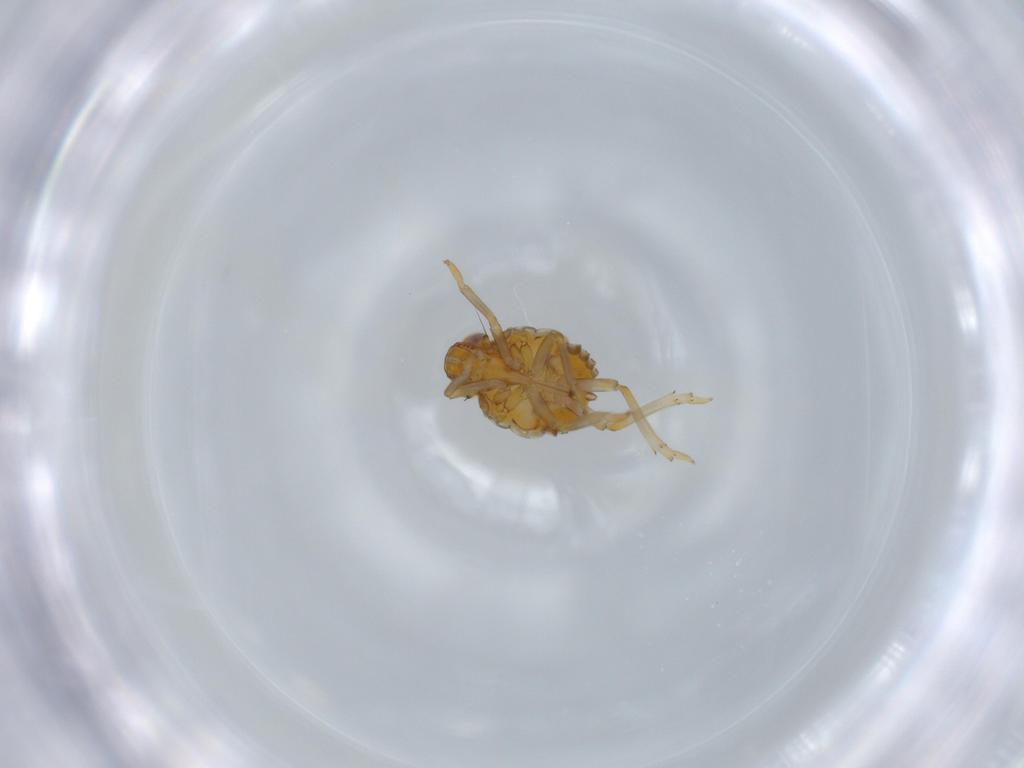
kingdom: Animalia
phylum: Arthropoda
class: Insecta
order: Hemiptera
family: Issidae
